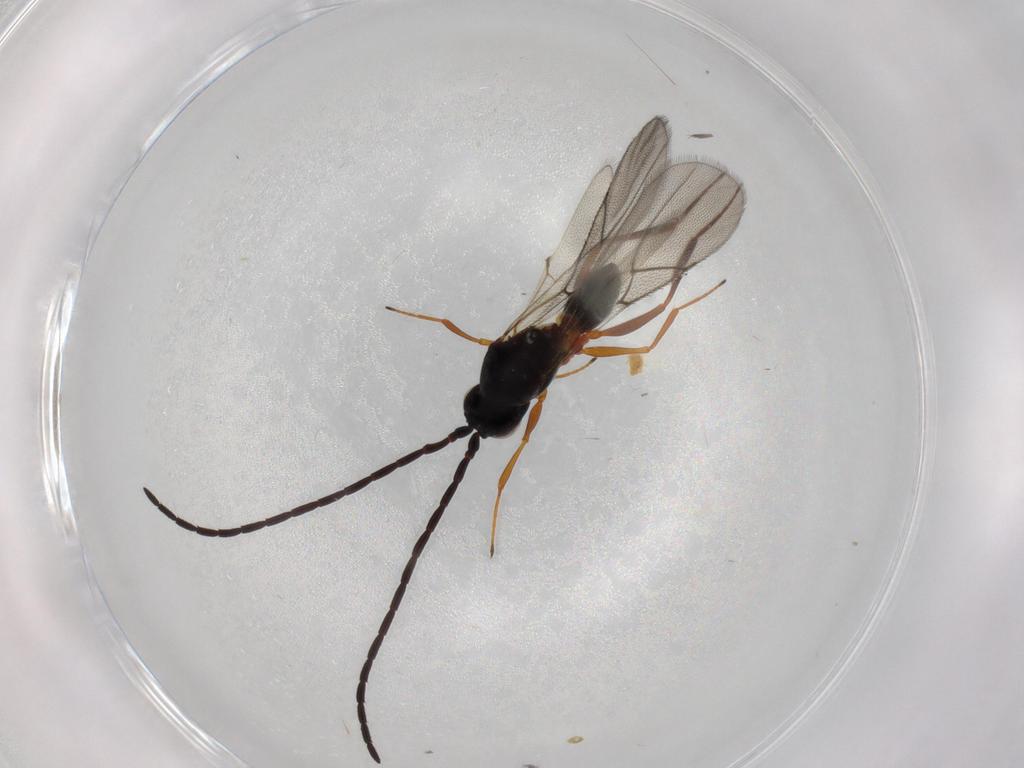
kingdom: Animalia
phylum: Arthropoda
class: Insecta
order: Hymenoptera
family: Figitidae
